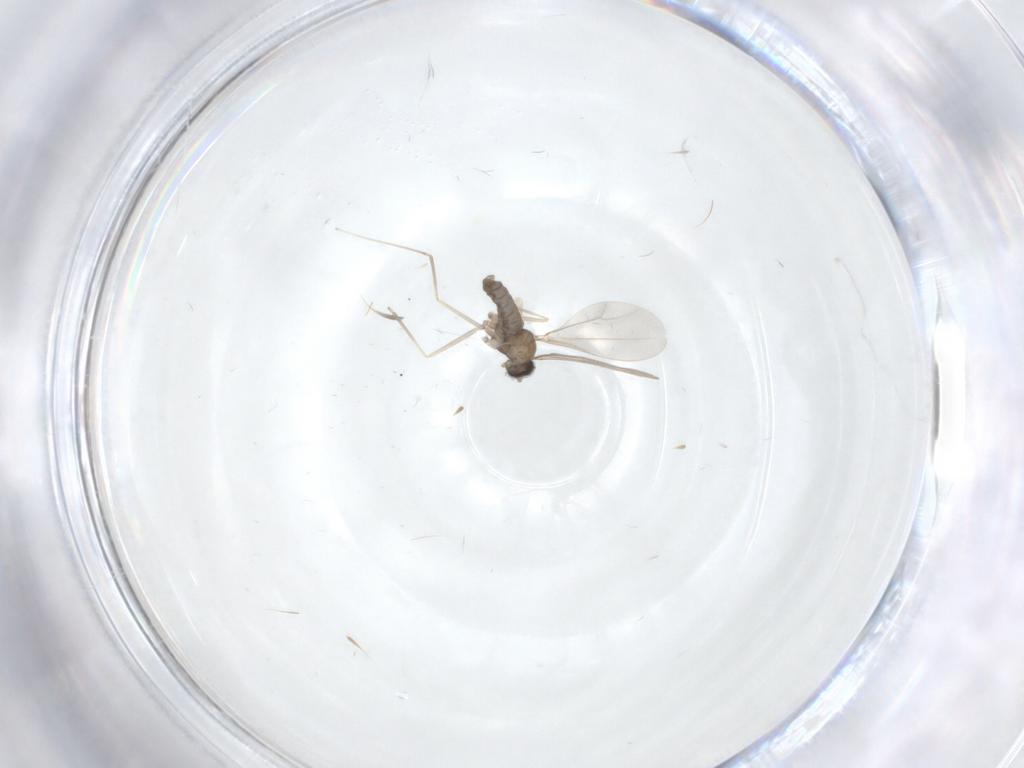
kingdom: Animalia
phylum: Arthropoda
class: Insecta
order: Diptera
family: Cecidomyiidae
